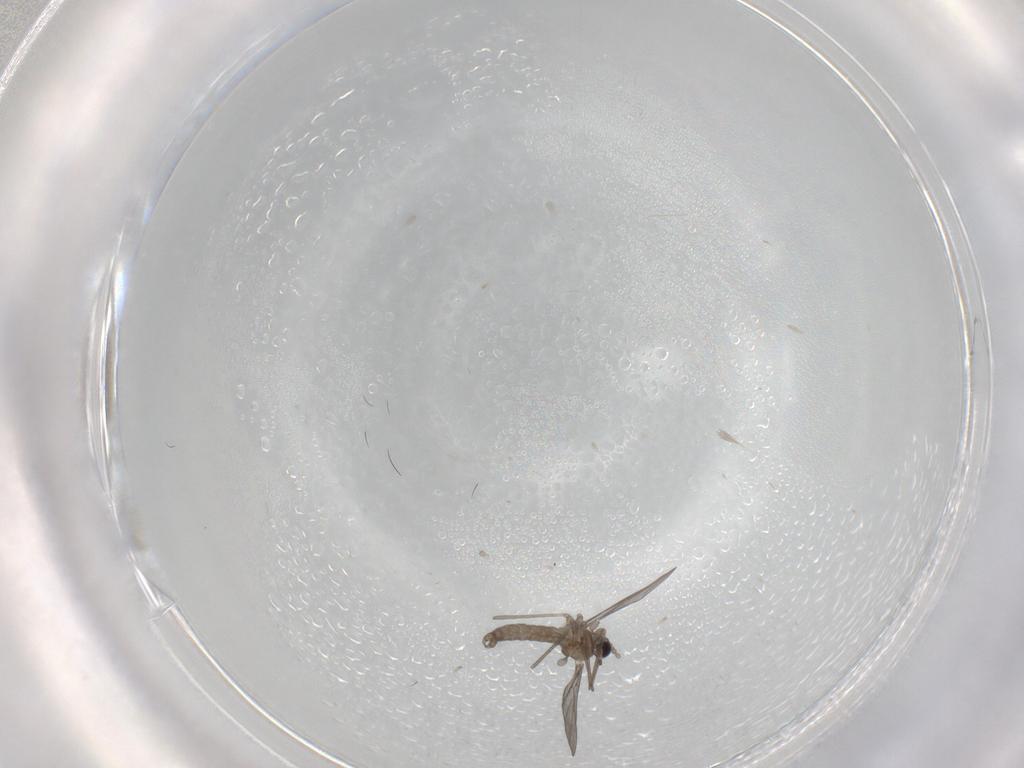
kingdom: Animalia
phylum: Arthropoda
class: Insecta
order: Diptera
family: Cecidomyiidae
